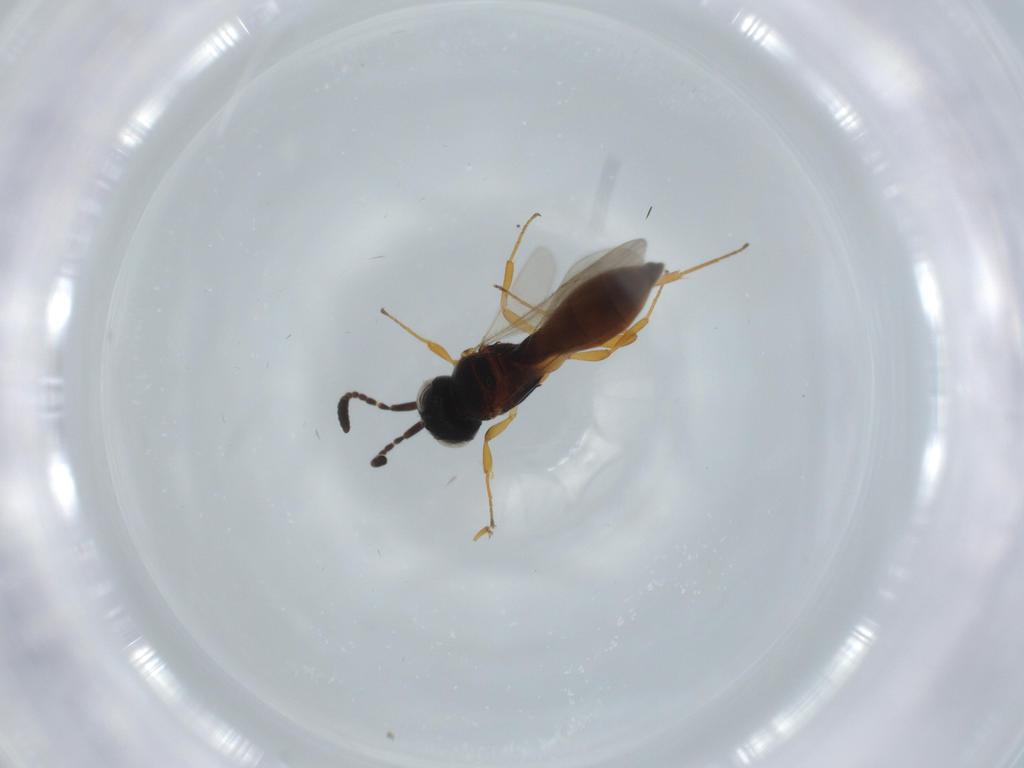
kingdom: Animalia
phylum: Arthropoda
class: Insecta
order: Hymenoptera
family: Formicidae
